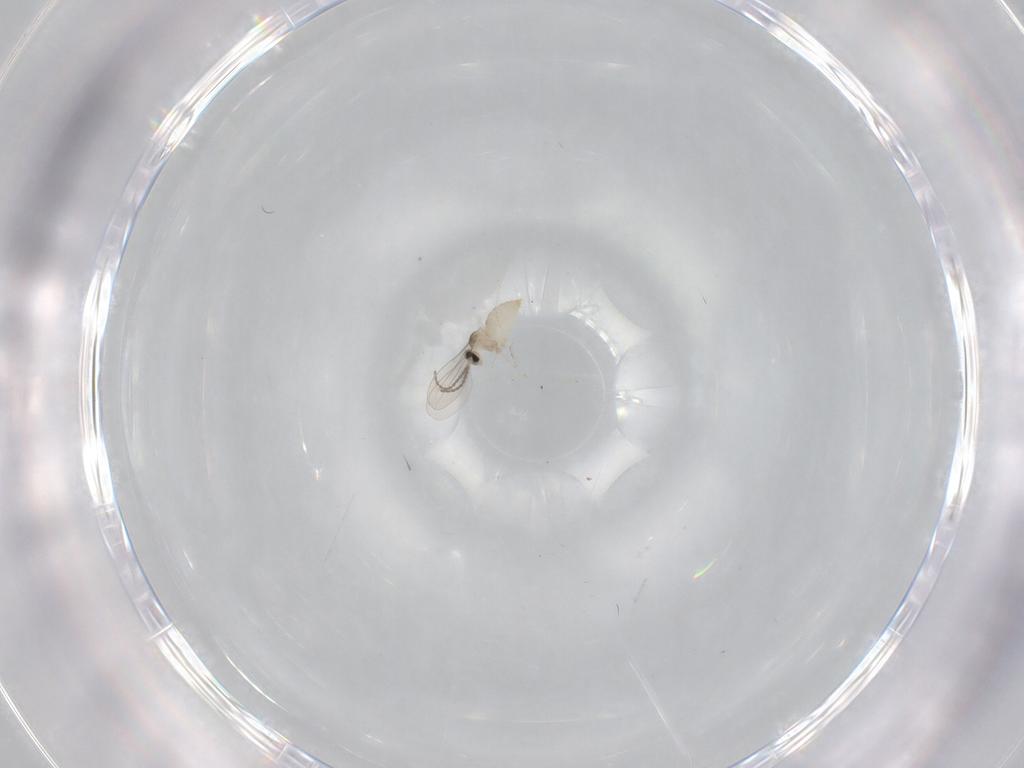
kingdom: Animalia
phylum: Arthropoda
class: Insecta
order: Diptera
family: Cecidomyiidae
